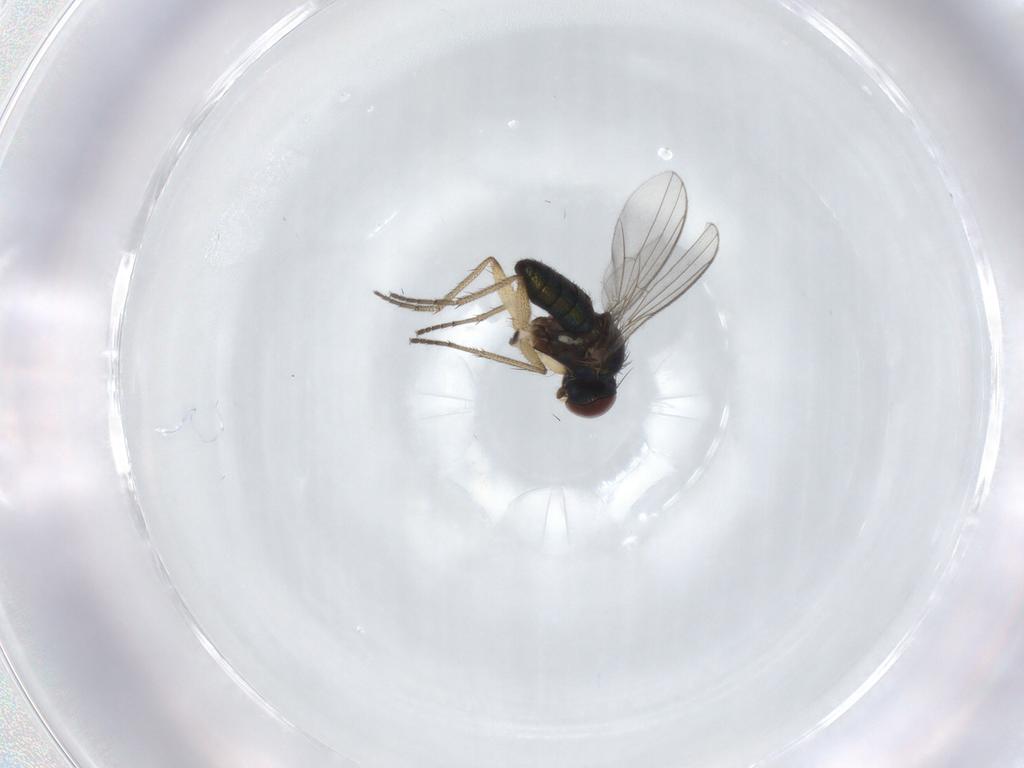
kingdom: Animalia
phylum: Arthropoda
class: Insecta
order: Diptera
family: Dolichopodidae
